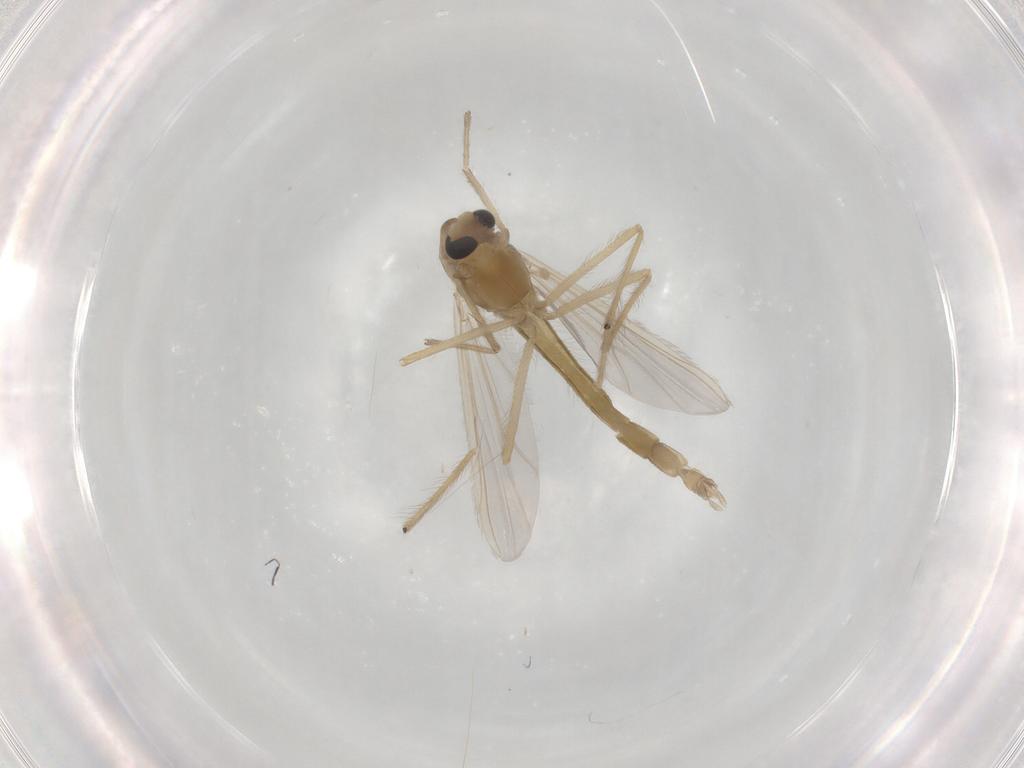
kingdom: Animalia
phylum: Arthropoda
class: Insecta
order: Diptera
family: Chironomidae
